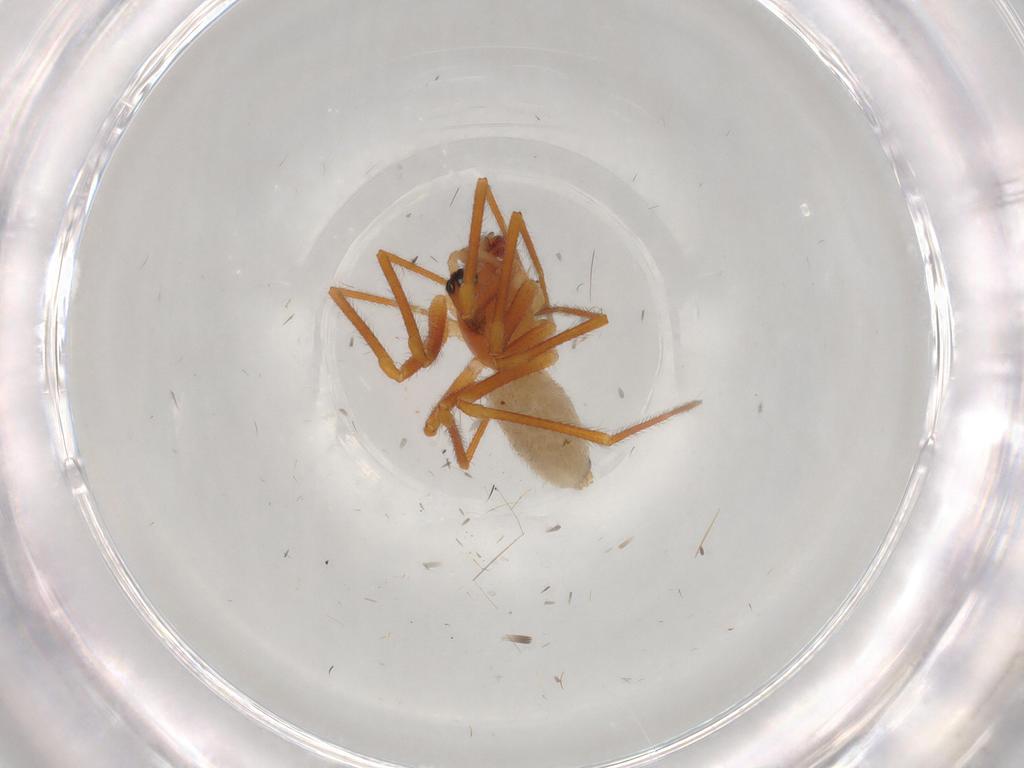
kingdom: Animalia
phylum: Arthropoda
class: Arachnida
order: Araneae
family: Linyphiidae
